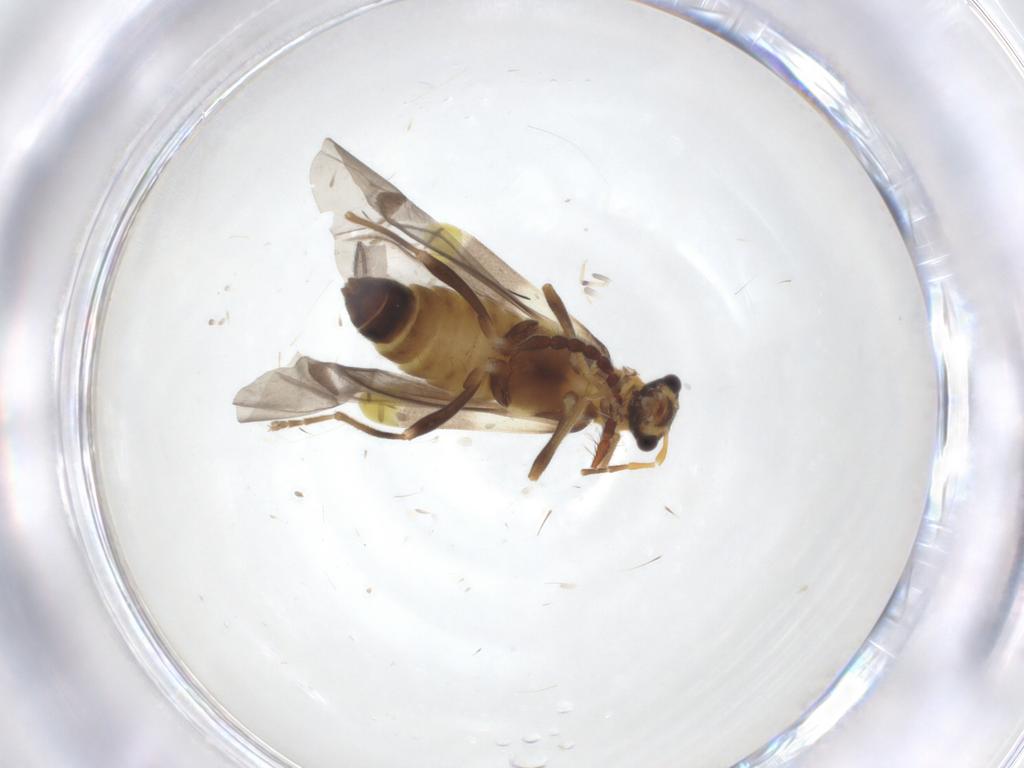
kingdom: Animalia
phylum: Arthropoda
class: Insecta
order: Coleoptera
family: Cantharidae
